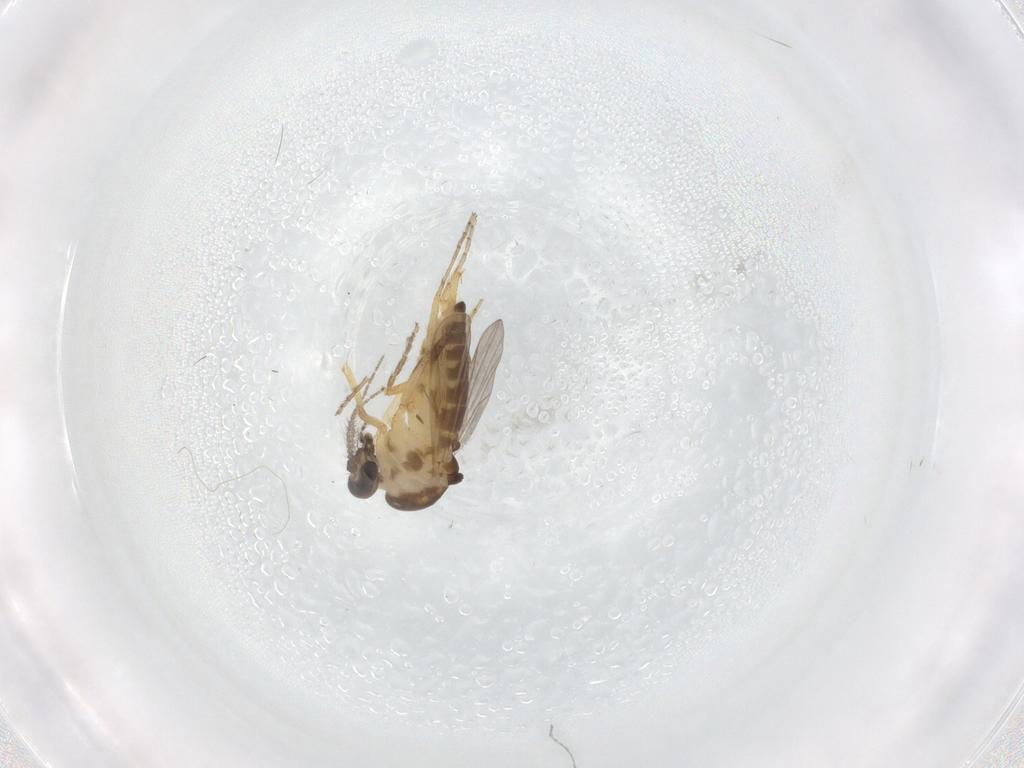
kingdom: Animalia
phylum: Arthropoda
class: Insecta
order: Diptera
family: Ceratopogonidae
